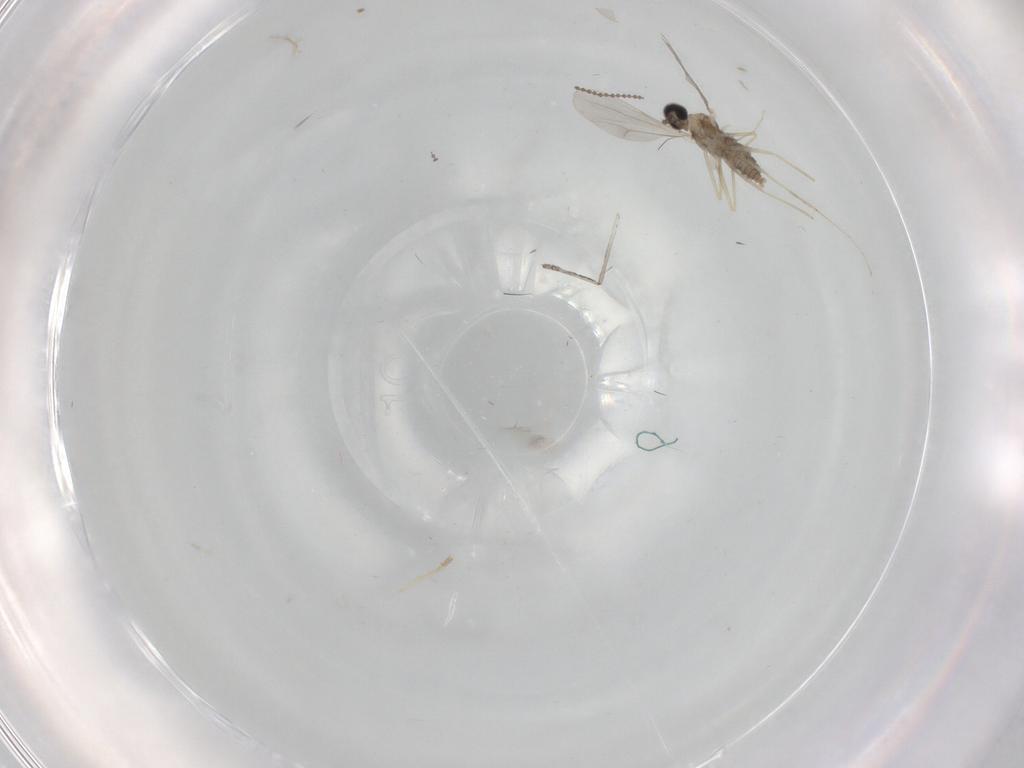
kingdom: Animalia
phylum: Arthropoda
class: Insecta
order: Diptera
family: Cecidomyiidae
